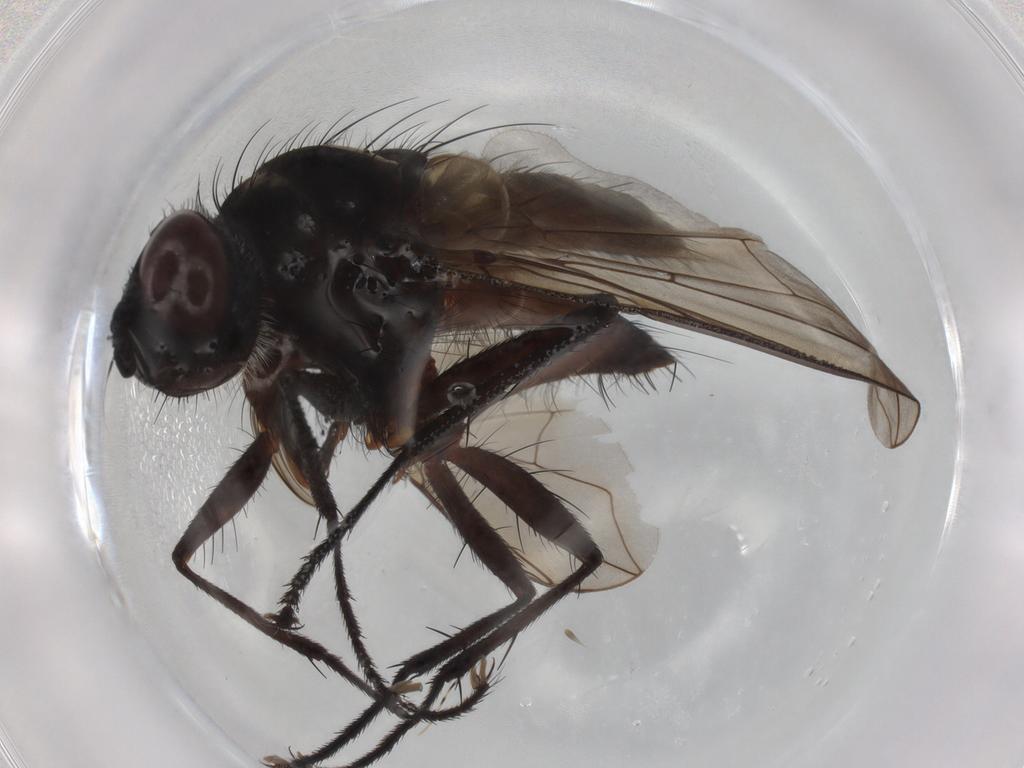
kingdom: Animalia
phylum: Arthropoda
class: Insecta
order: Diptera
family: Muscidae
